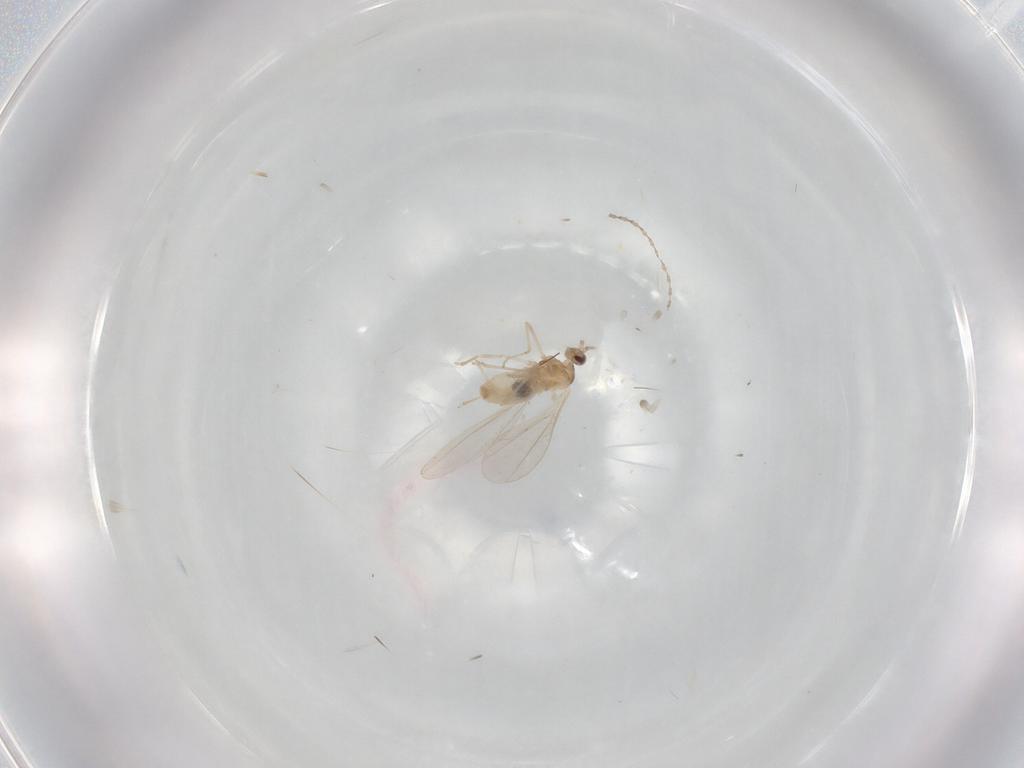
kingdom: Animalia
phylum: Arthropoda
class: Insecta
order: Diptera
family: Cecidomyiidae
